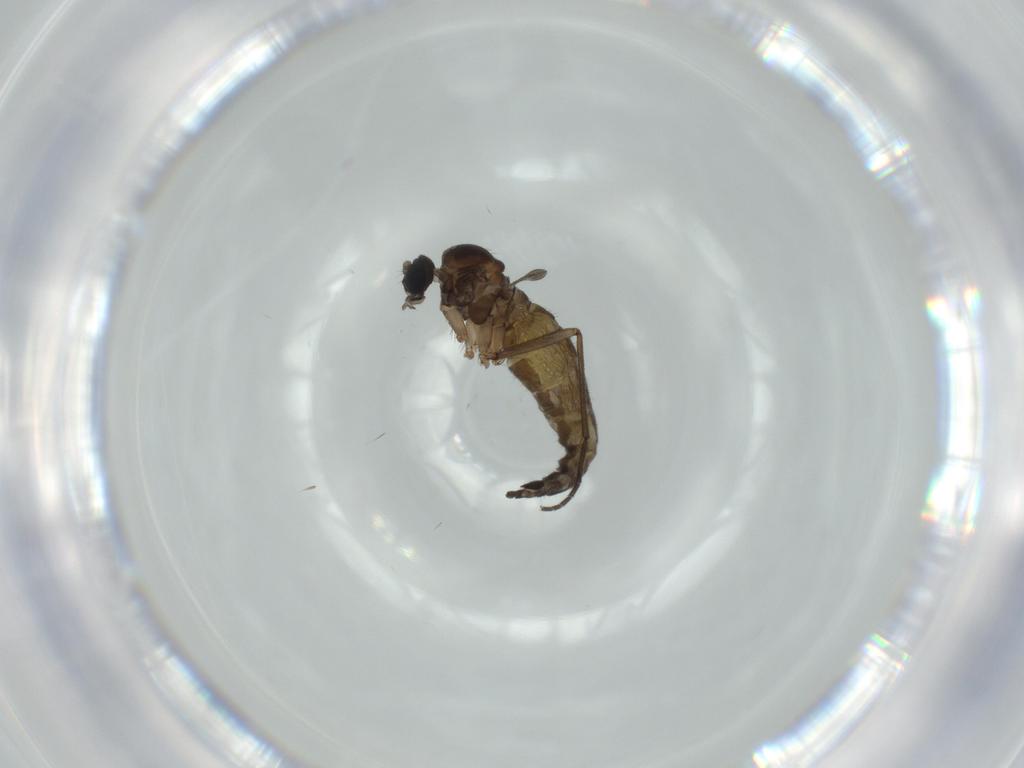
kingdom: Animalia
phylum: Arthropoda
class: Insecta
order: Diptera
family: Sciaridae
